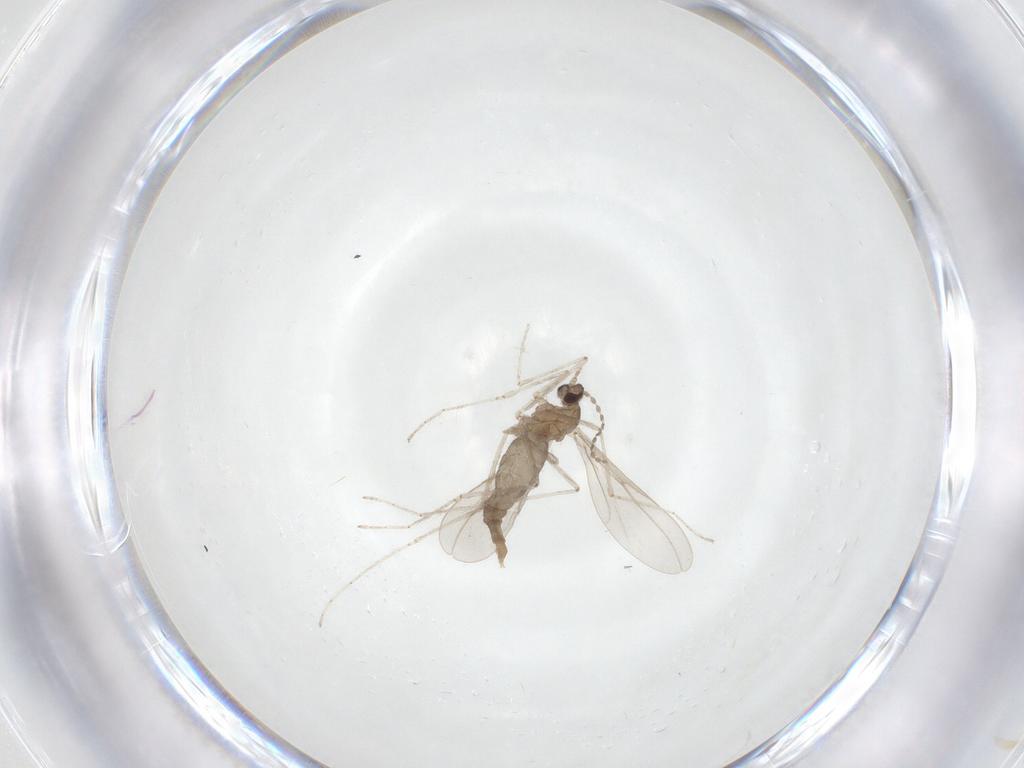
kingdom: Animalia
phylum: Arthropoda
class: Insecta
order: Diptera
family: Cecidomyiidae
